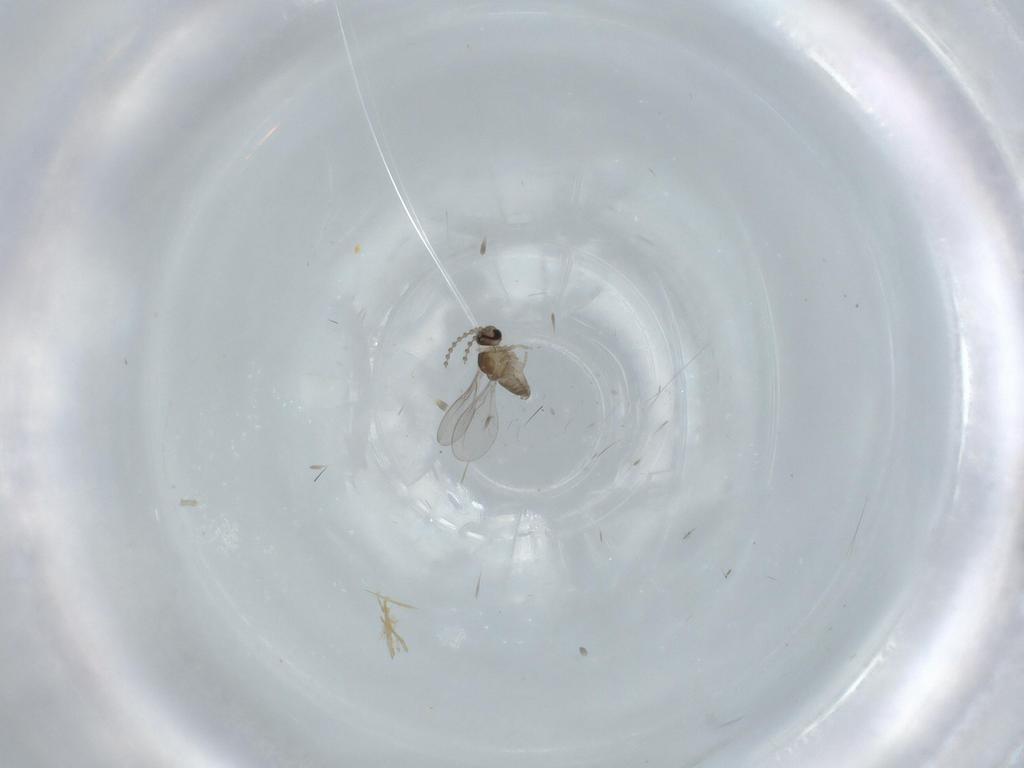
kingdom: Animalia
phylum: Arthropoda
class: Insecta
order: Diptera
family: Cecidomyiidae
